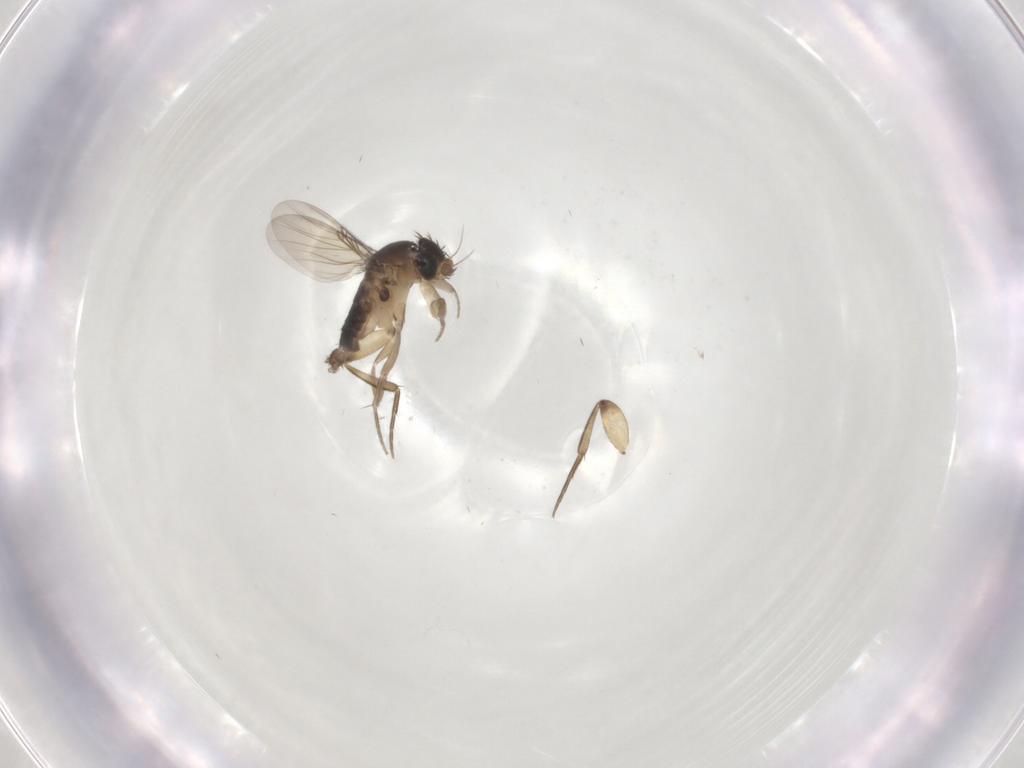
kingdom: Animalia
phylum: Arthropoda
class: Insecta
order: Diptera
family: Phoridae
